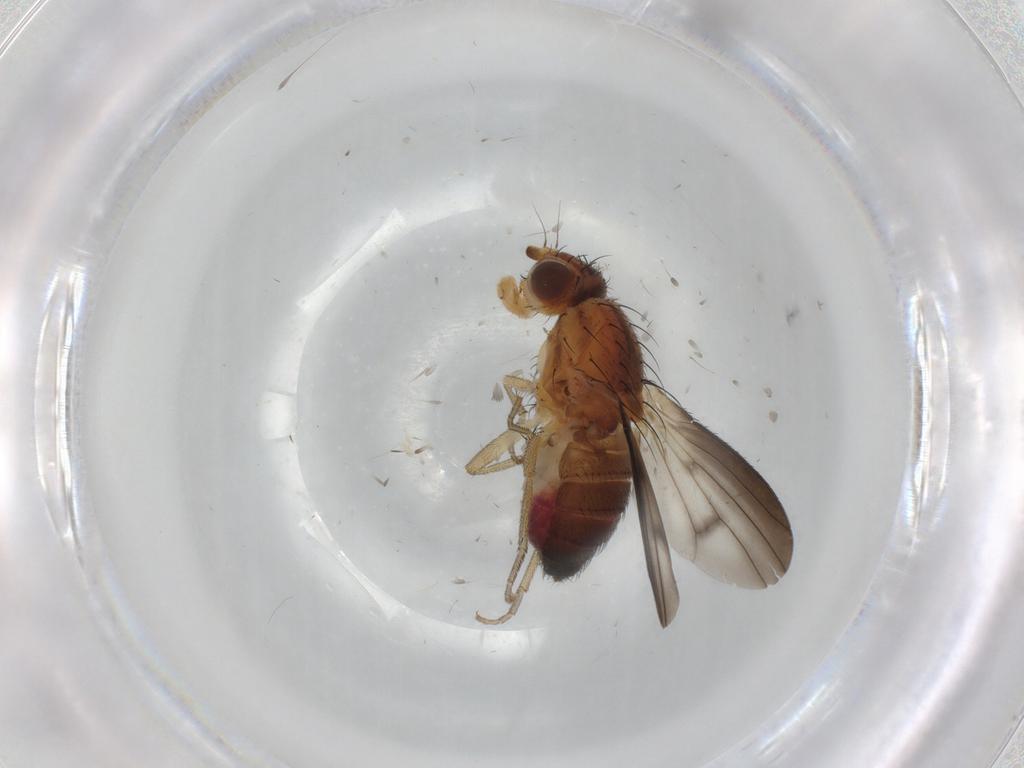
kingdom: Animalia
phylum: Arthropoda
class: Insecta
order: Diptera
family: Heleomyzidae
